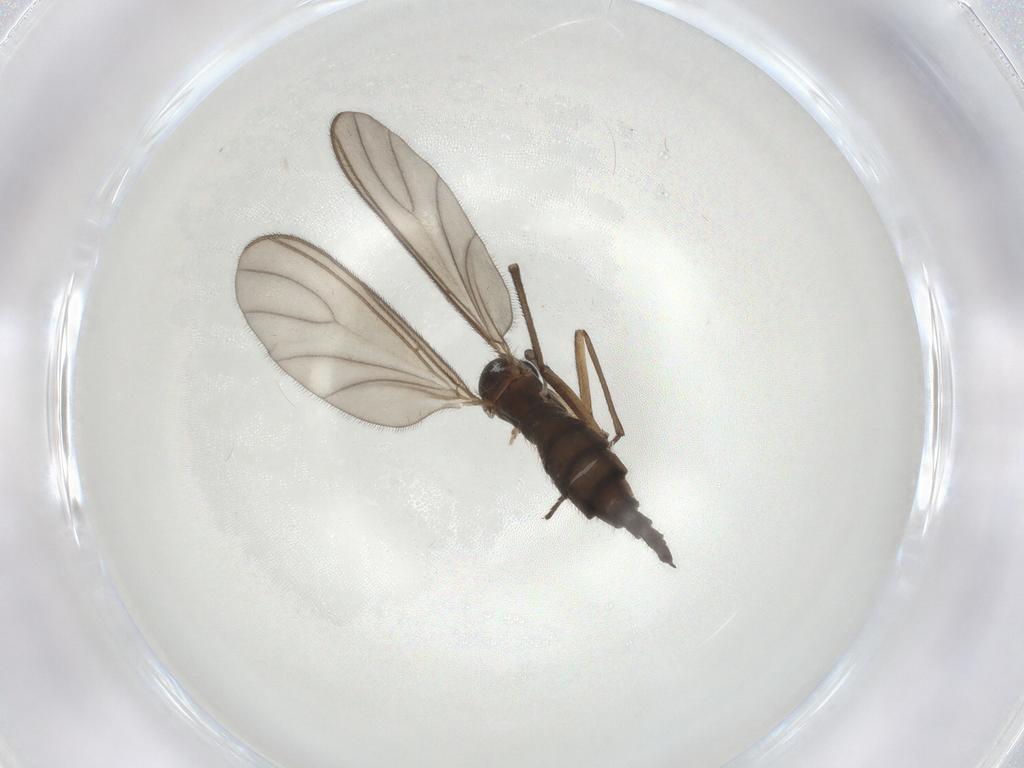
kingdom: Animalia
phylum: Arthropoda
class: Insecta
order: Diptera
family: Sciaridae
